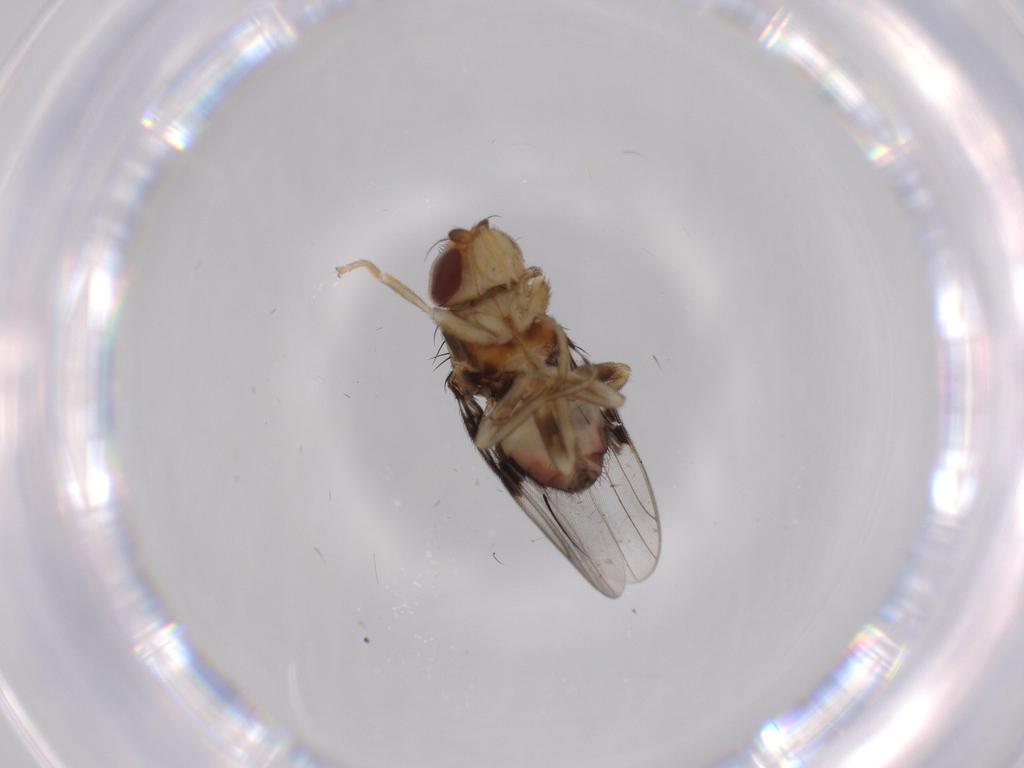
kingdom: Animalia
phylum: Arthropoda
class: Insecta
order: Diptera
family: Chloropidae
